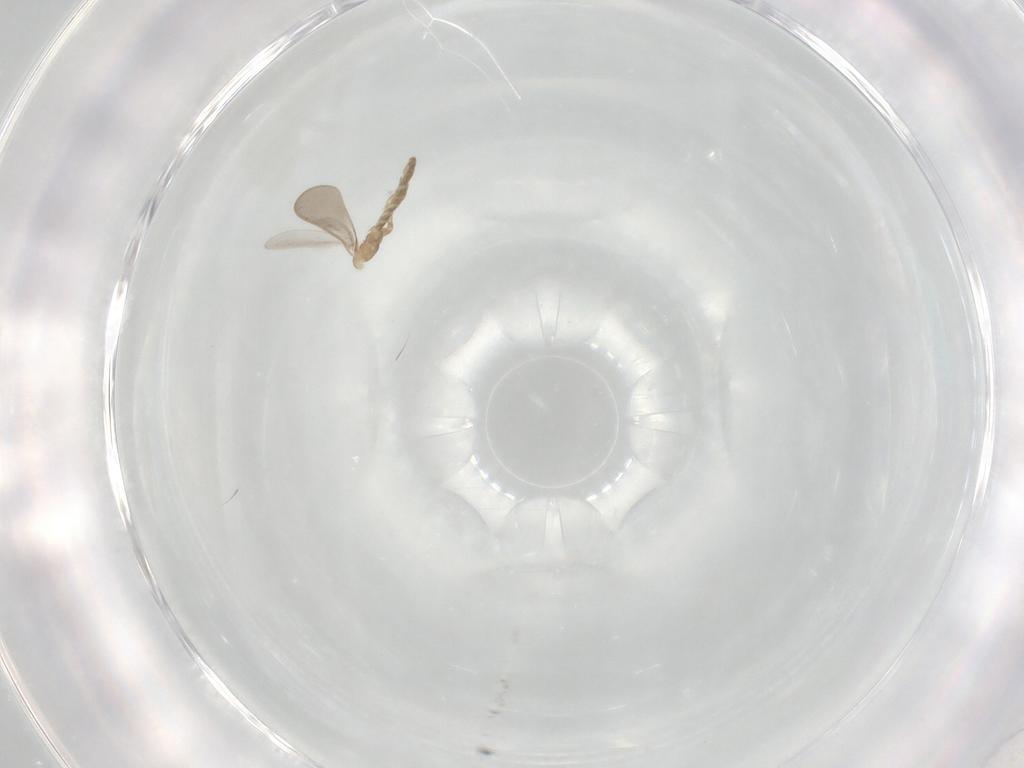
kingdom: Animalia
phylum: Arthropoda
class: Insecta
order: Hemiptera
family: Enicocephalidae
